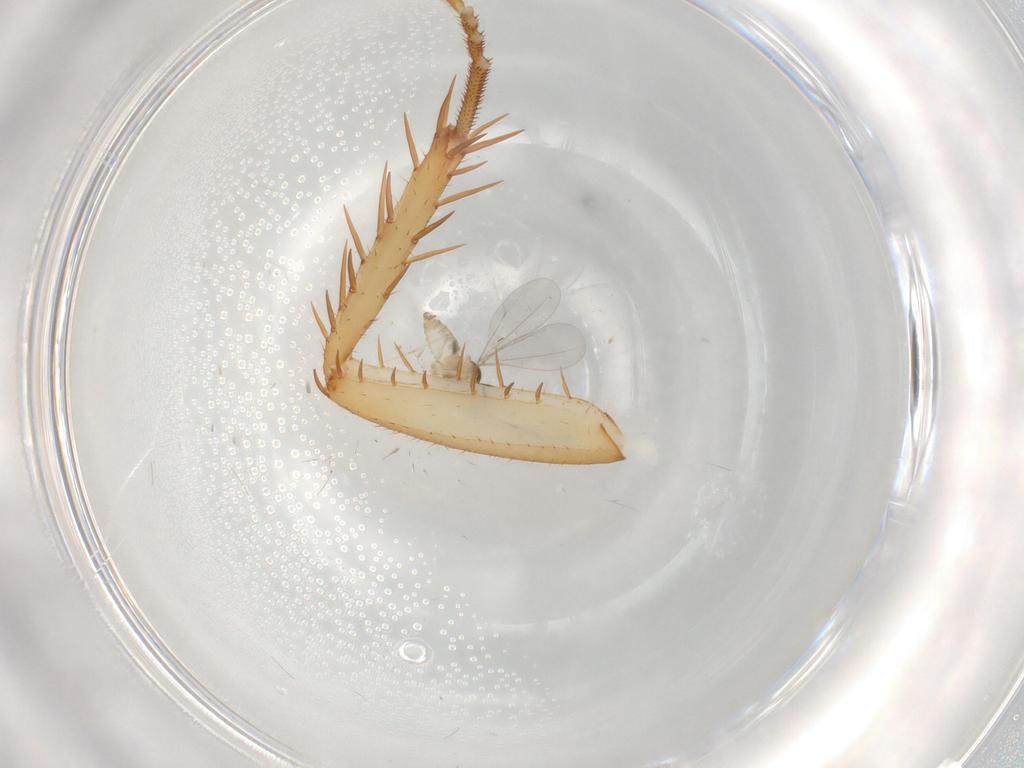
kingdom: Animalia
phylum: Arthropoda
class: Insecta
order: Blattodea
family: Ectobiidae
